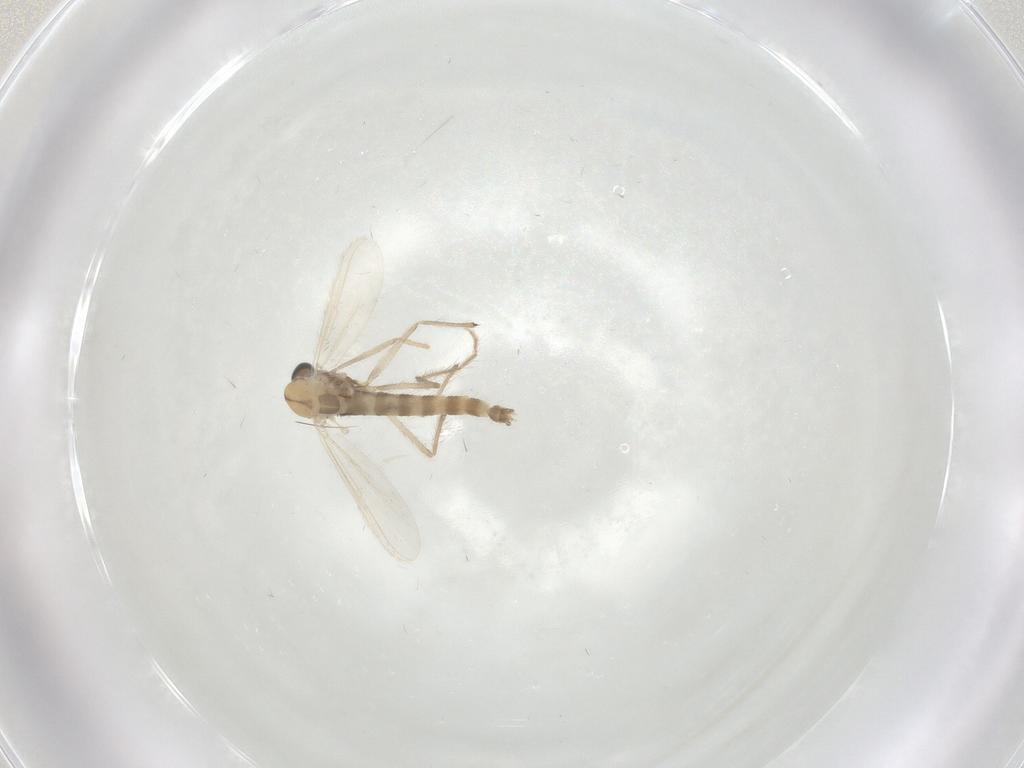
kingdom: Animalia
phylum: Arthropoda
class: Insecta
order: Diptera
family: Chironomidae
